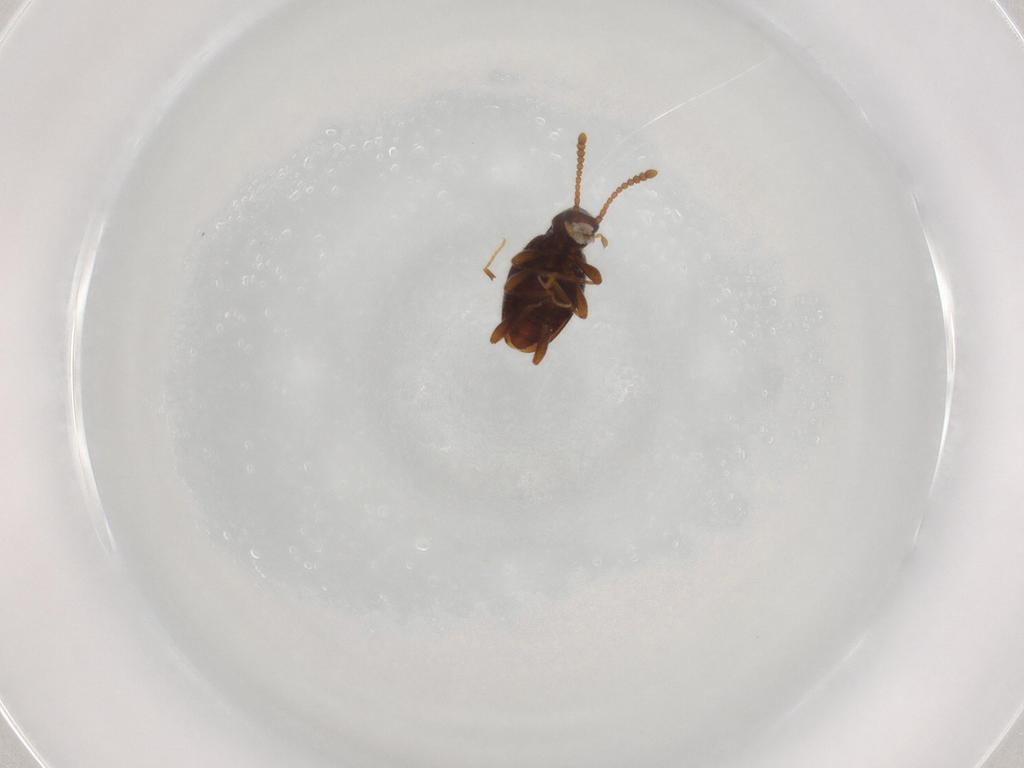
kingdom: Animalia
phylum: Arthropoda
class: Insecta
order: Coleoptera
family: Staphylinidae
